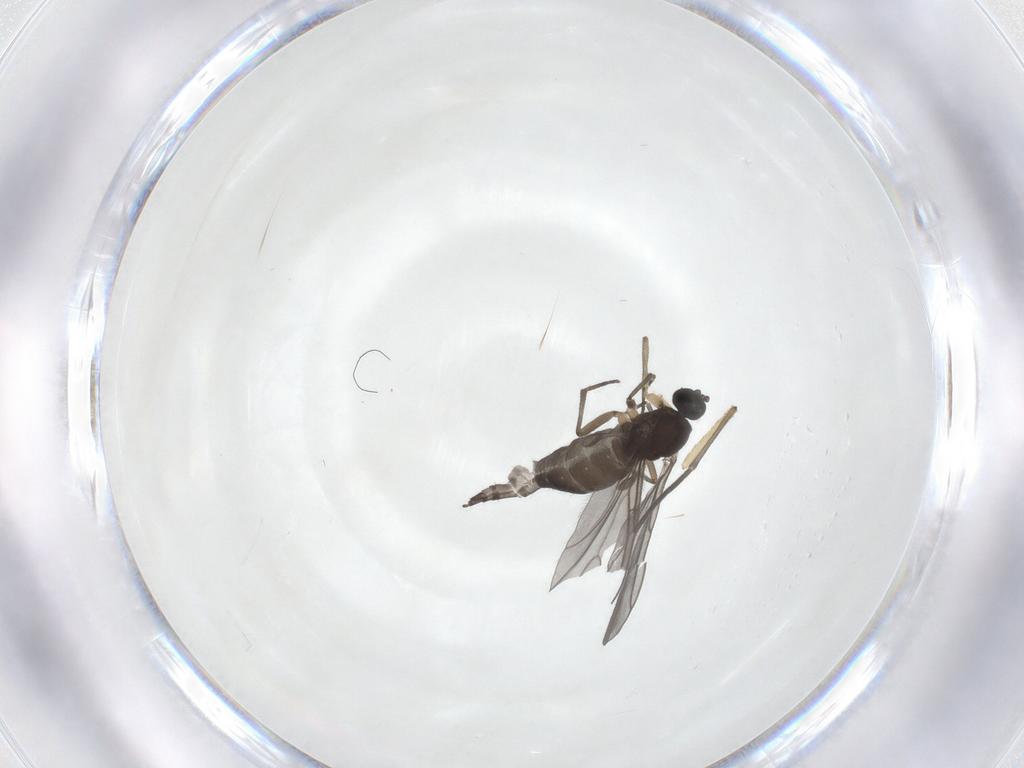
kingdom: Animalia
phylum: Arthropoda
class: Insecta
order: Diptera
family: Sciaridae
